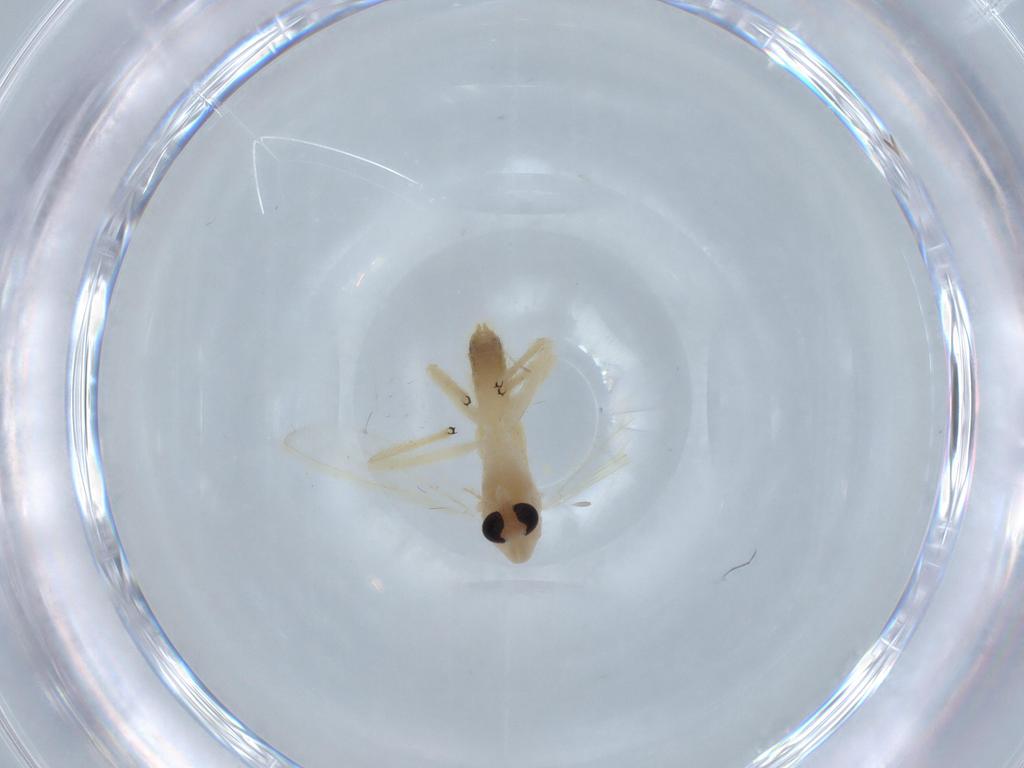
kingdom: Animalia
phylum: Arthropoda
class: Insecta
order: Diptera
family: Chironomidae
